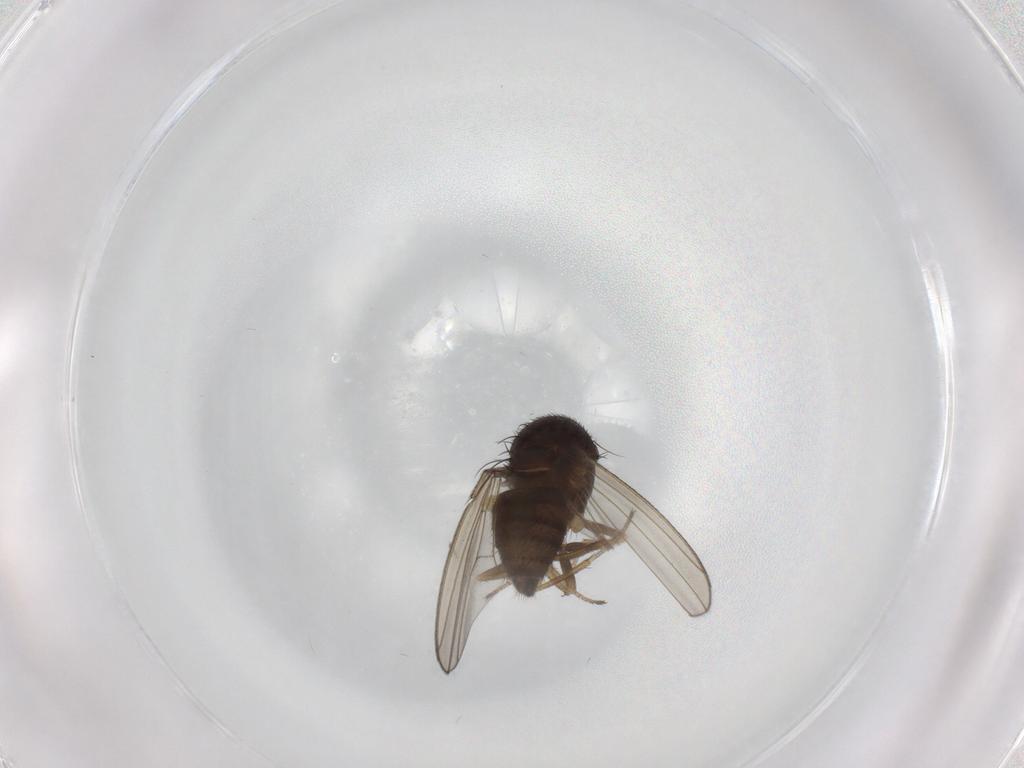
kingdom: Animalia
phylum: Arthropoda
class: Insecta
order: Diptera
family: Drosophilidae
